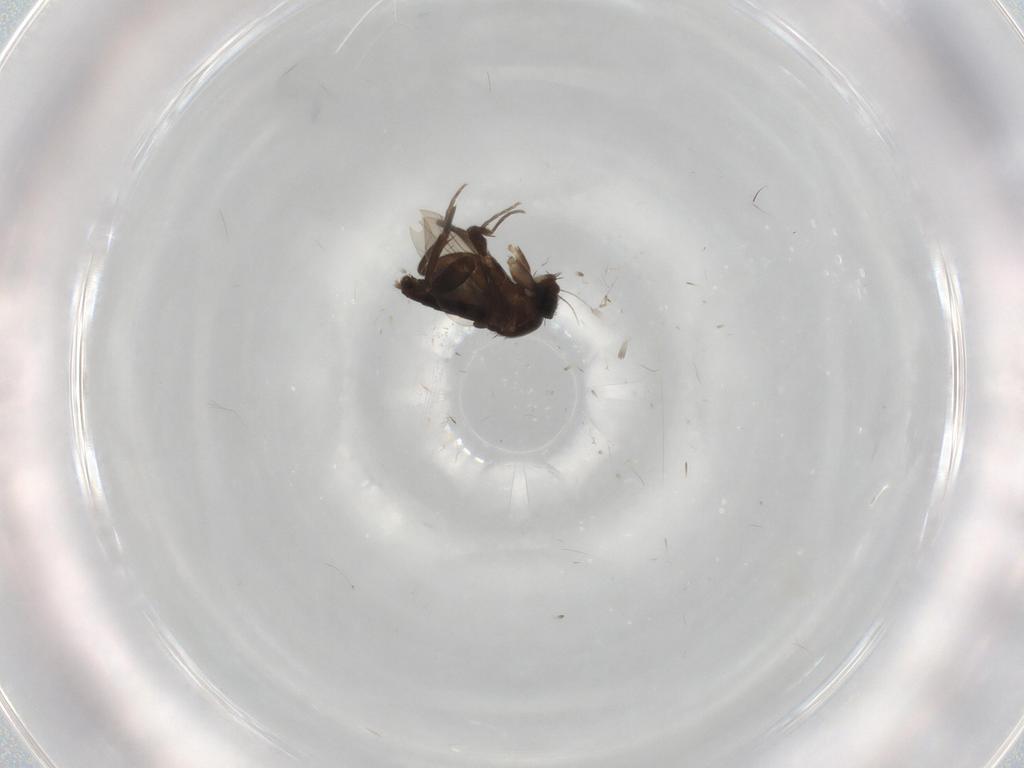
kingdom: Animalia
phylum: Arthropoda
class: Insecta
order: Diptera
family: Phoridae
